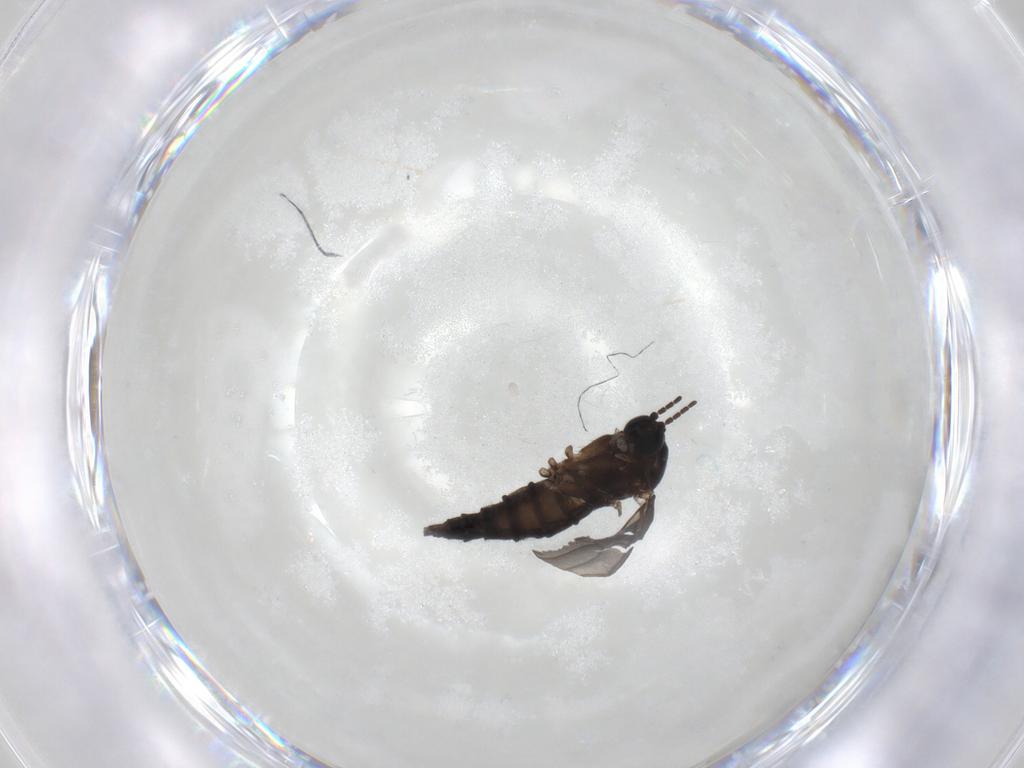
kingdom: Animalia
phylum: Arthropoda
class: Insecta
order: Diptera
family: Sciaridae
